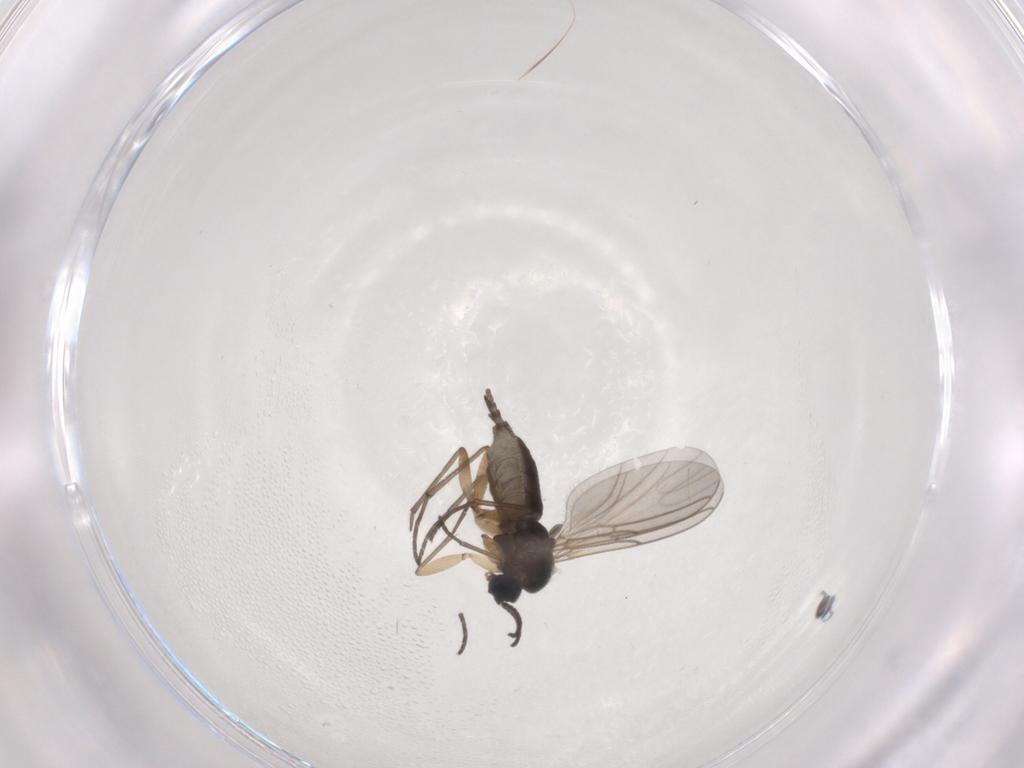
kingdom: Animalia
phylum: Arthropoda
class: Insecta
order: Diptera
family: Sciaridae
